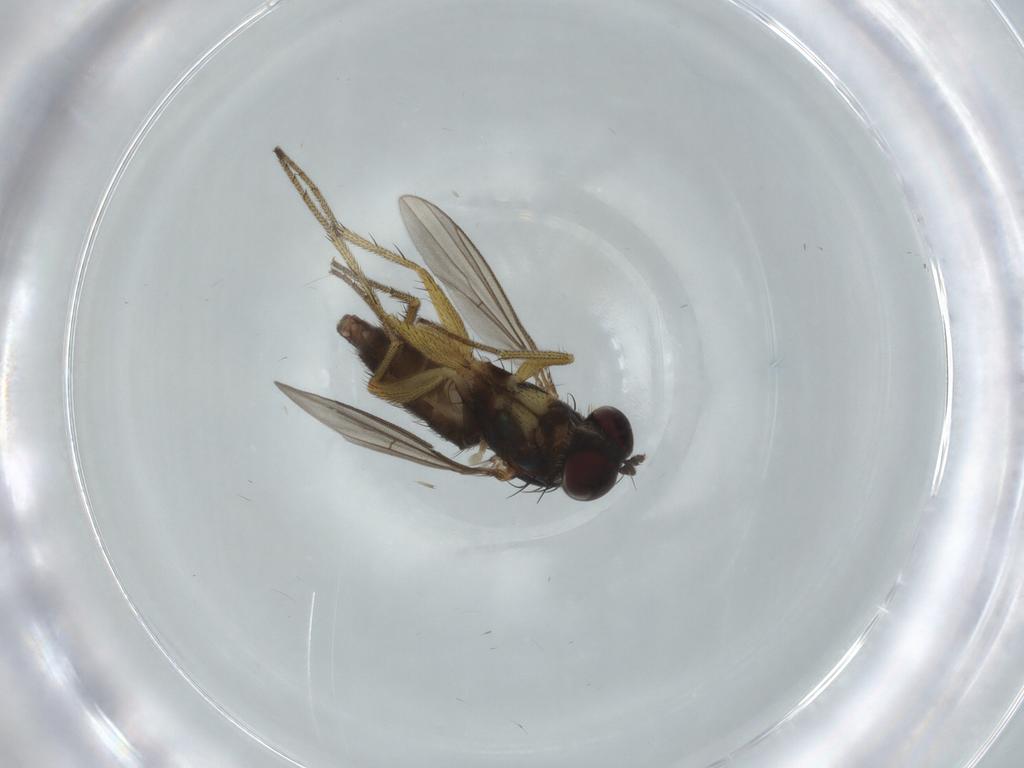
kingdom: Animalia
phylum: Arthropoda
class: Insecta
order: Diptera
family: Dolichopodidae
